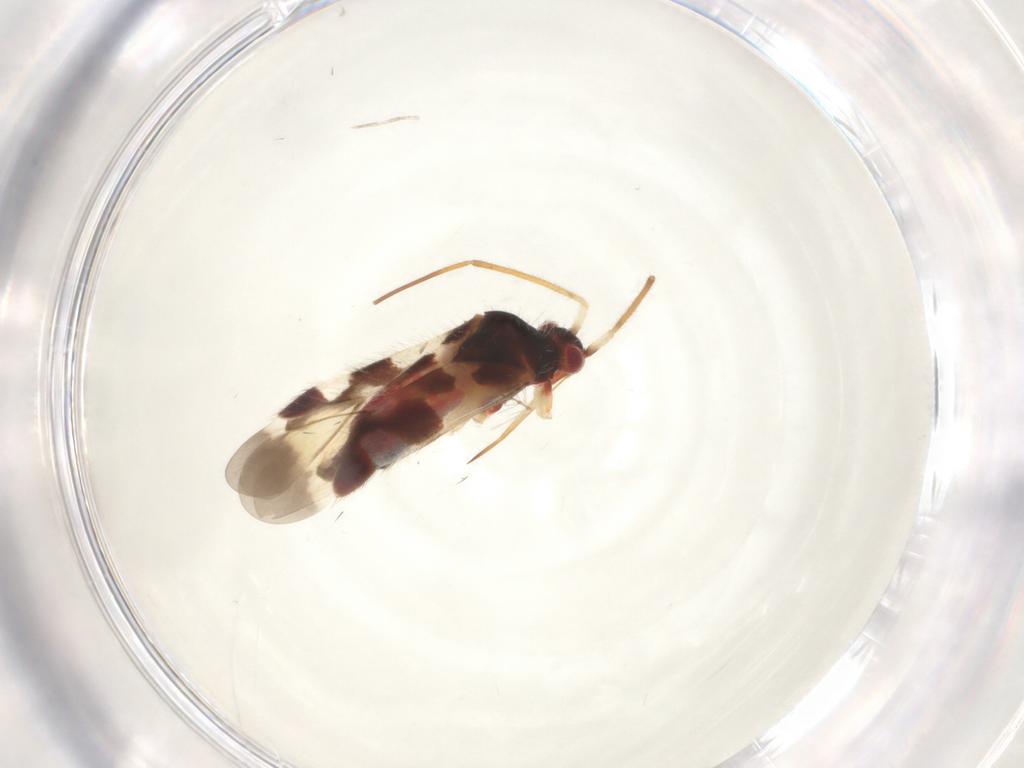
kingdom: Animalia
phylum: Arthropoda
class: Insecta
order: Hemiptera
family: Miridae
